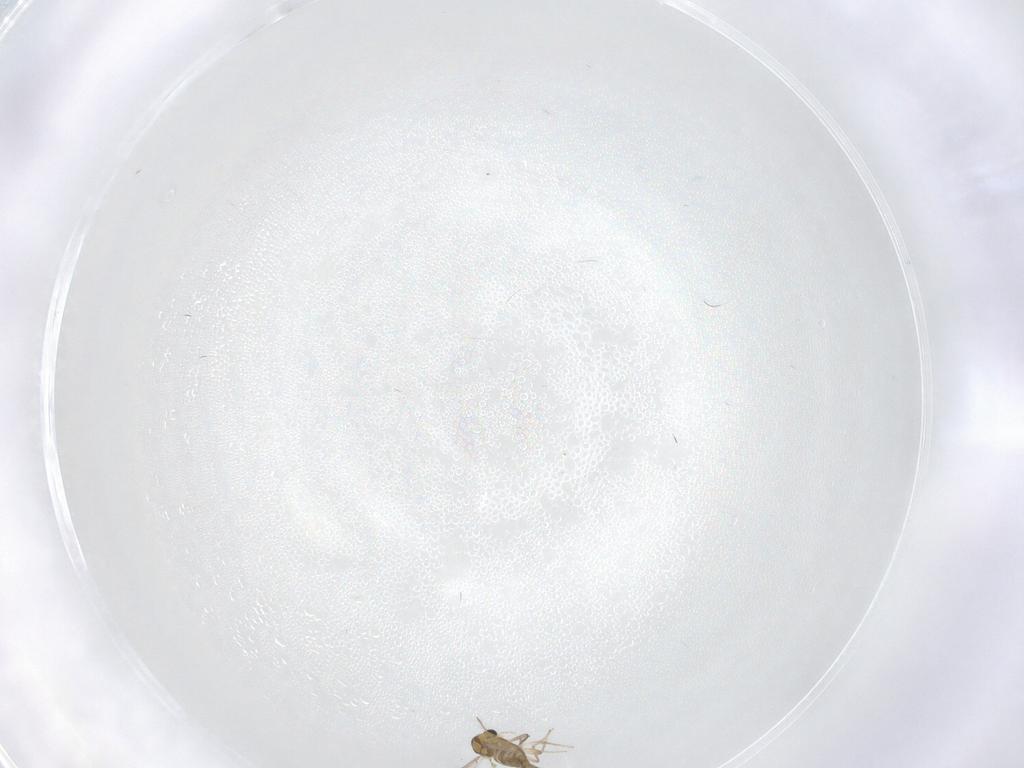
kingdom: Animalia
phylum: Arthropoda
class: Insecta
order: Diptera
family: Chironomidae
